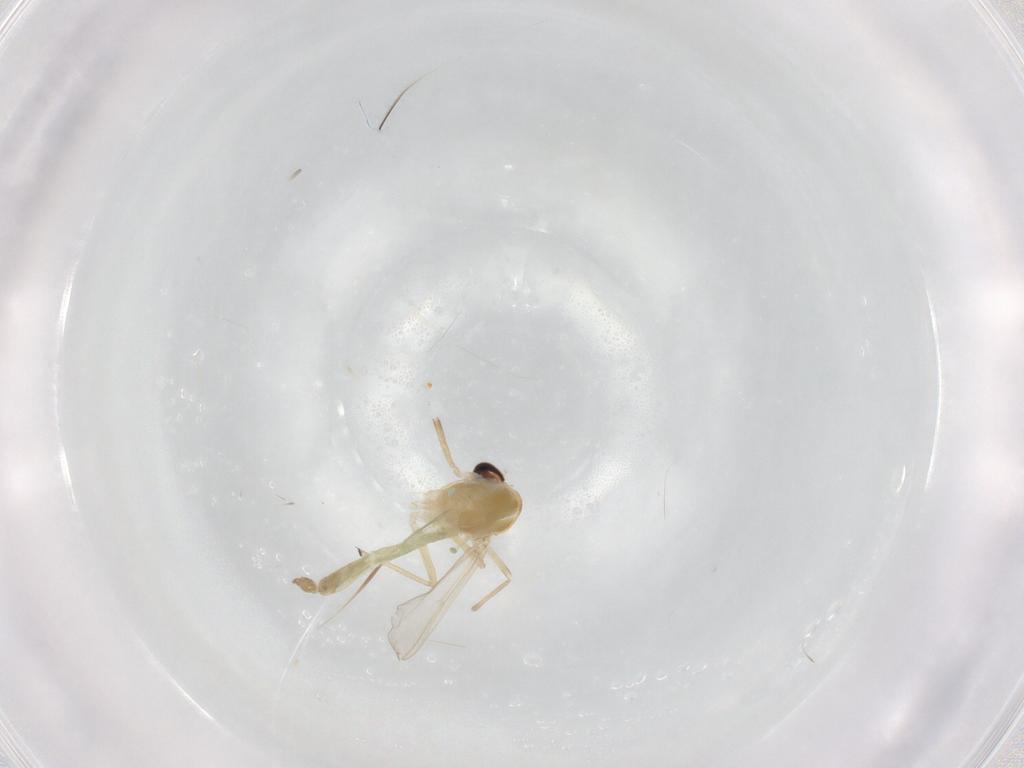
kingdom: Animalia
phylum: Arthropoda
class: Insecta
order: Diptera
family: Chironomidae
